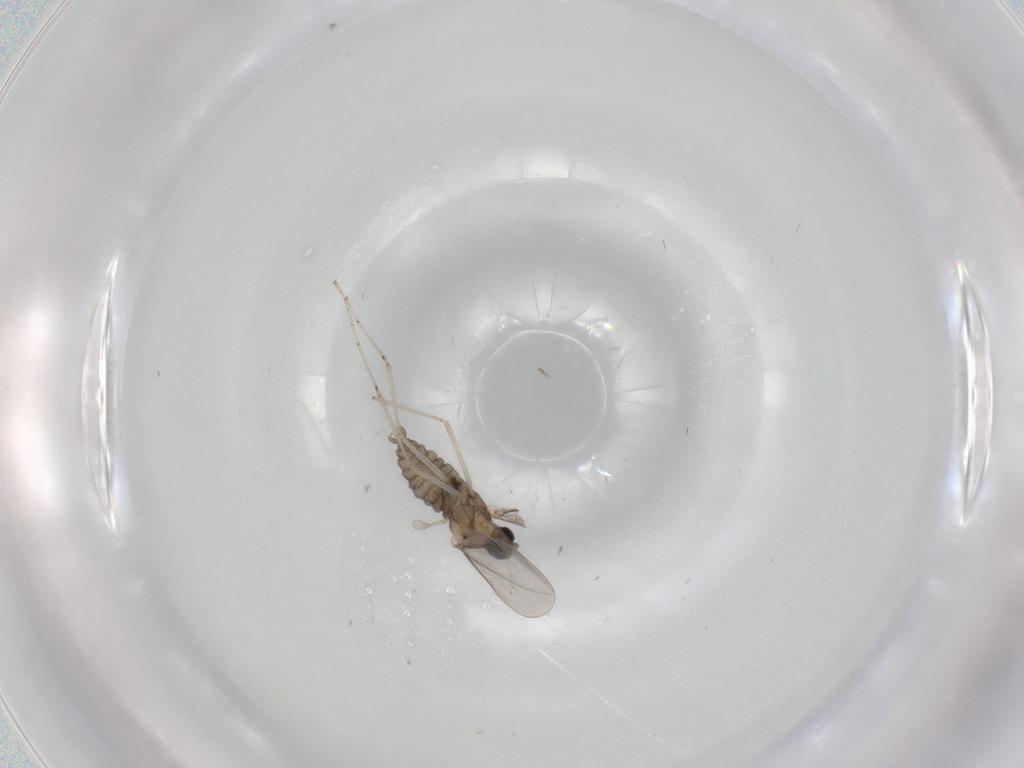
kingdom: Animalia
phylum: Arthropoda
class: Insecta
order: Diptera
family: Cecidomyiidae
